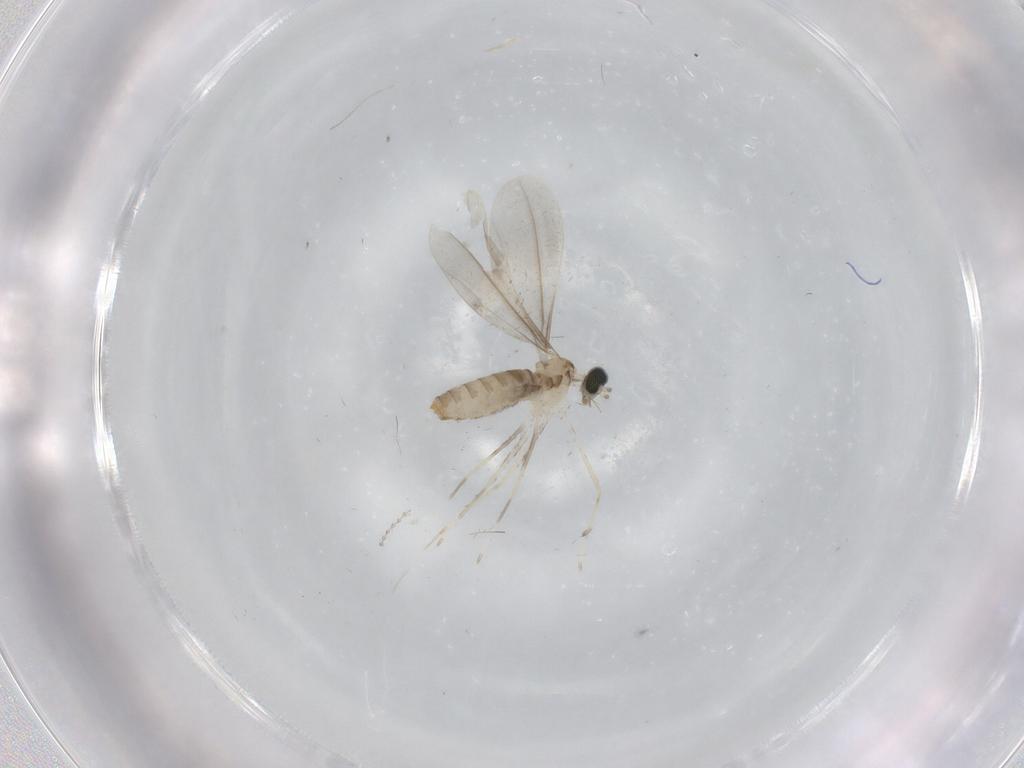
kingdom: Animalia
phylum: Arthropoda
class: Insecta
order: Diptera
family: Cecidomyiidae
